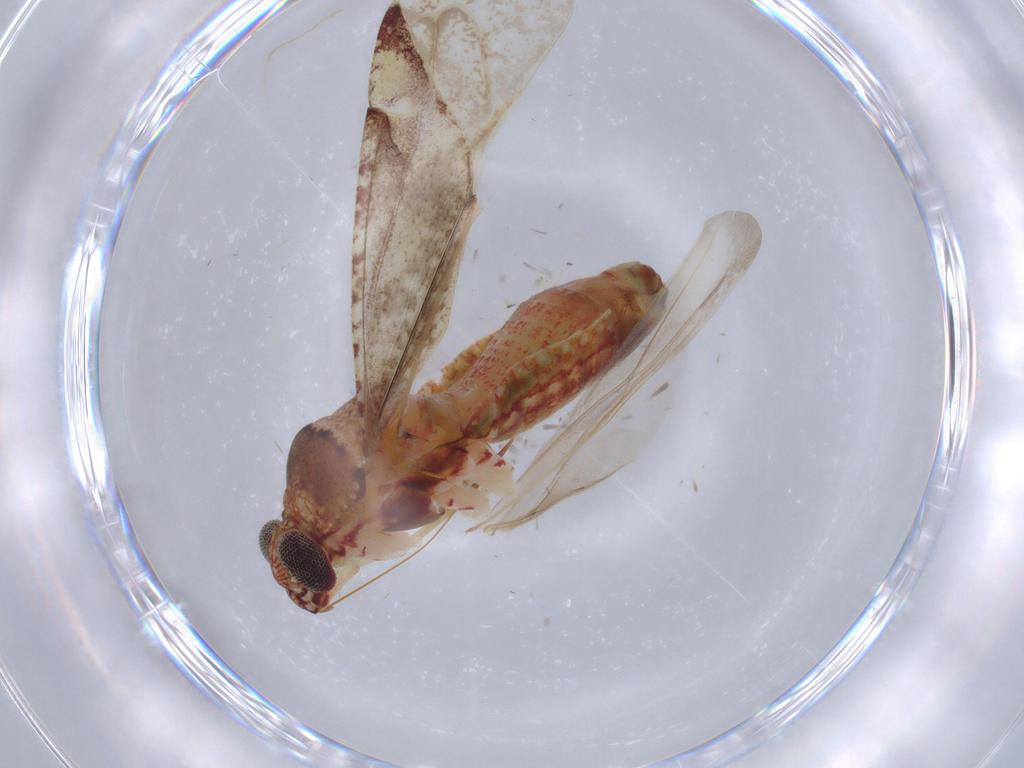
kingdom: Animalia
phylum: Arthropoda
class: Insecta
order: Hemiptera
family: Miridae
